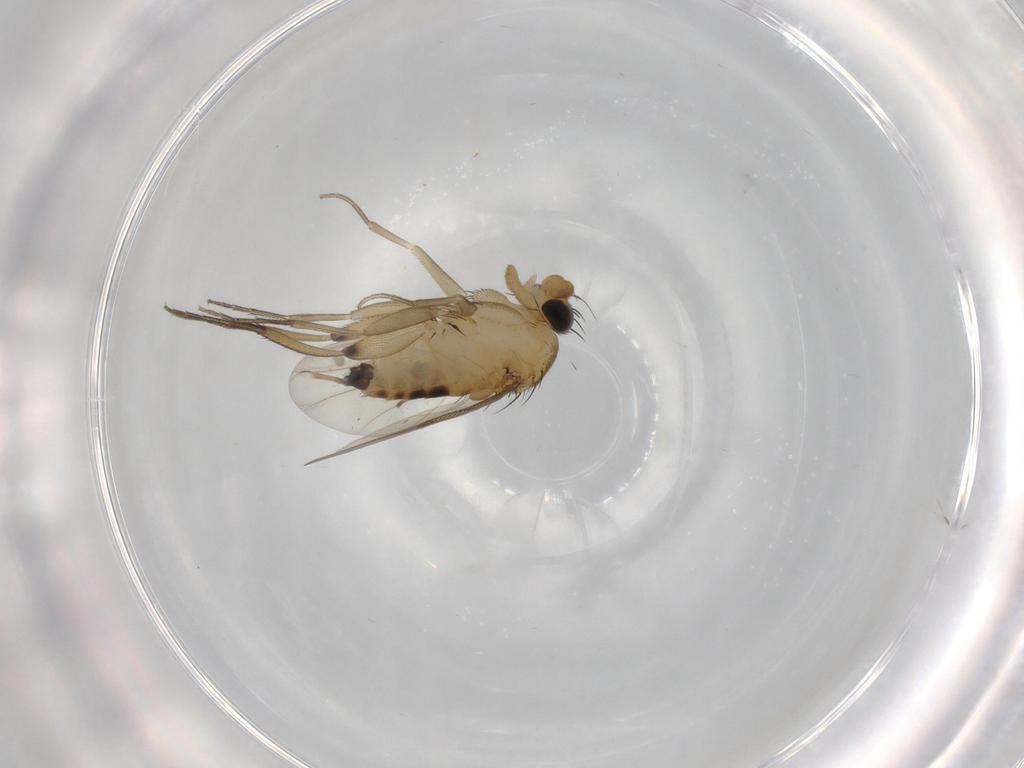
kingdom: Animalia
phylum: Arthropoda
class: Insecta
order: Diptera
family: Phoridae
